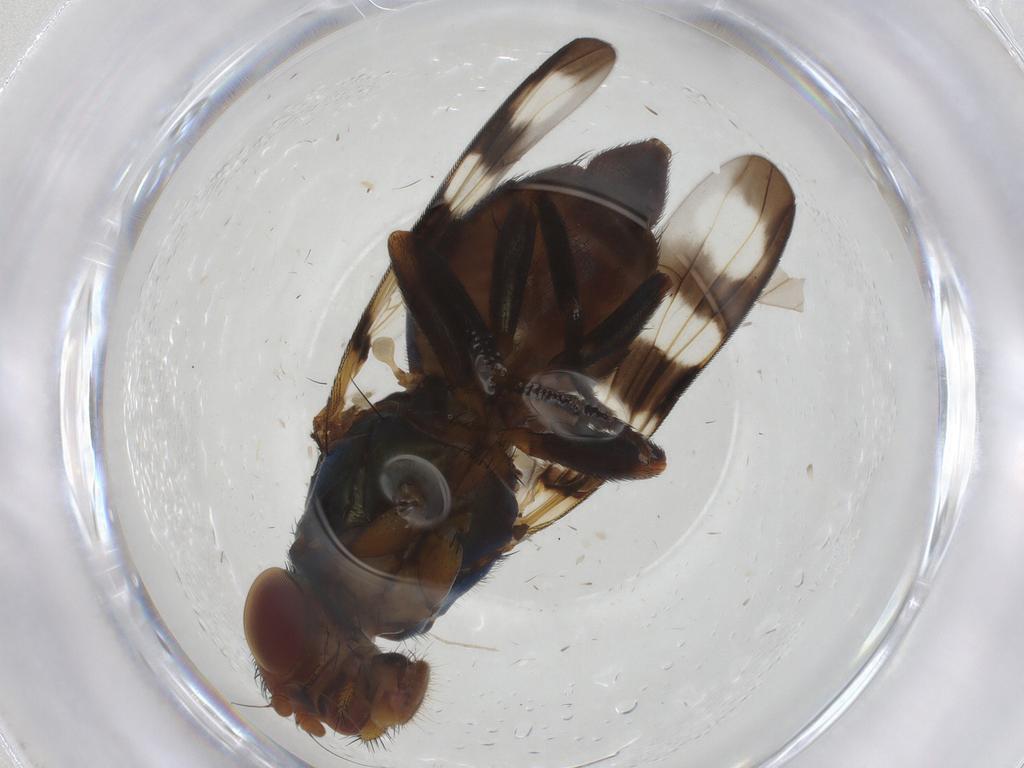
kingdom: Animalia
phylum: Arthropoda
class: Insecta
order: Diptera
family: Ulidiidae
